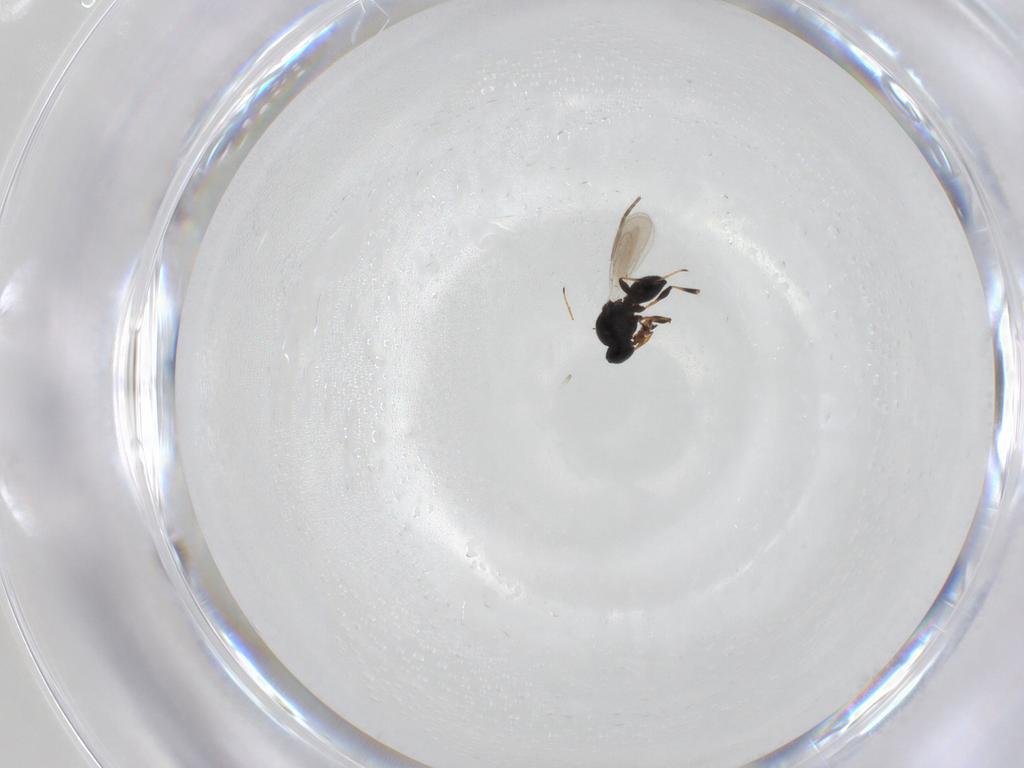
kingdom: Animalia
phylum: Arthropoda
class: Insecta
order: Hymenoptera
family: Platygastridae
